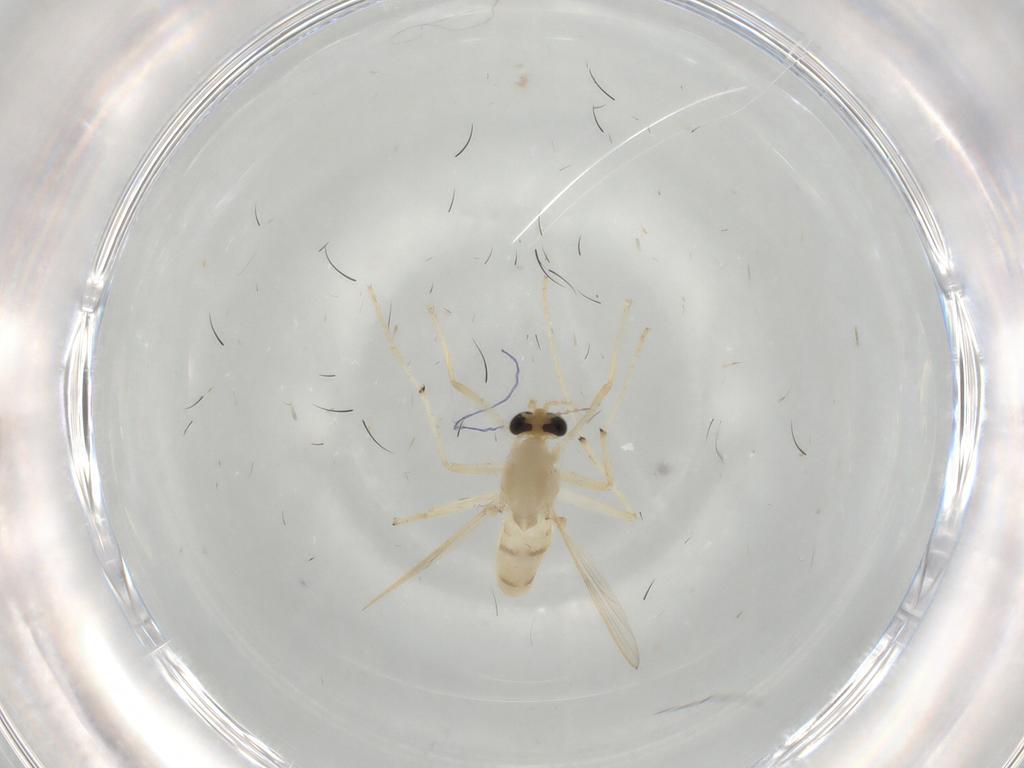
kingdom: Animalia
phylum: Arthropoda
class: Insecta
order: Diptera
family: Chironomidae
